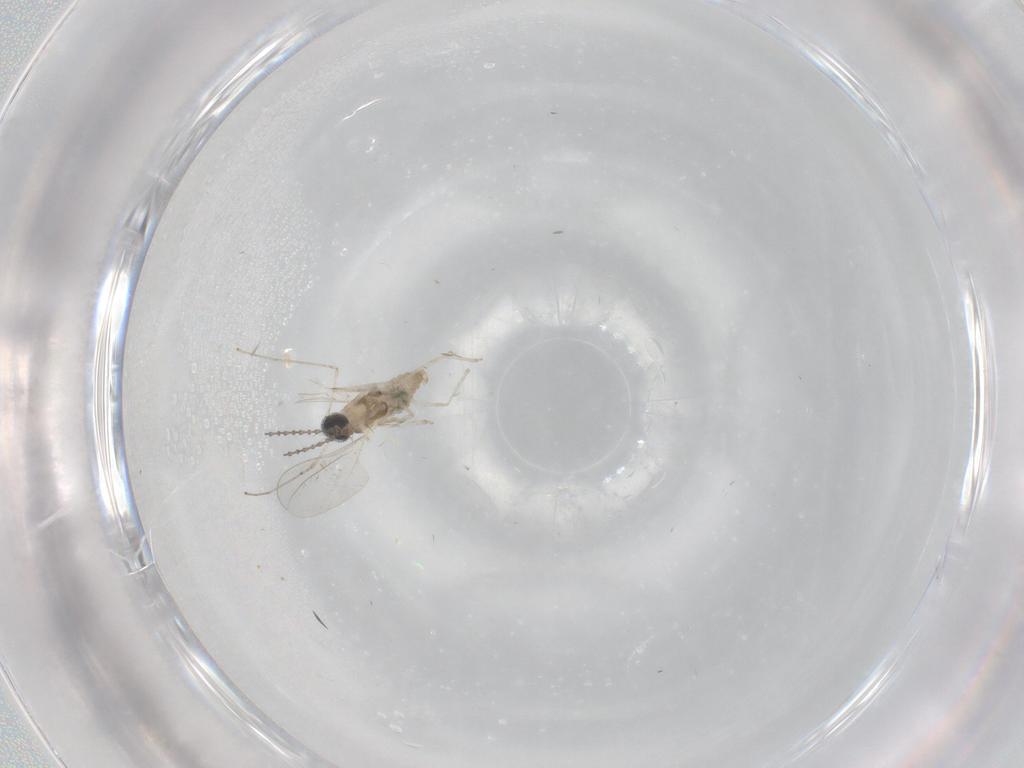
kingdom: Animalia
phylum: Arthropoda
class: Insecta
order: Diptera
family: Cecidomyiidae
